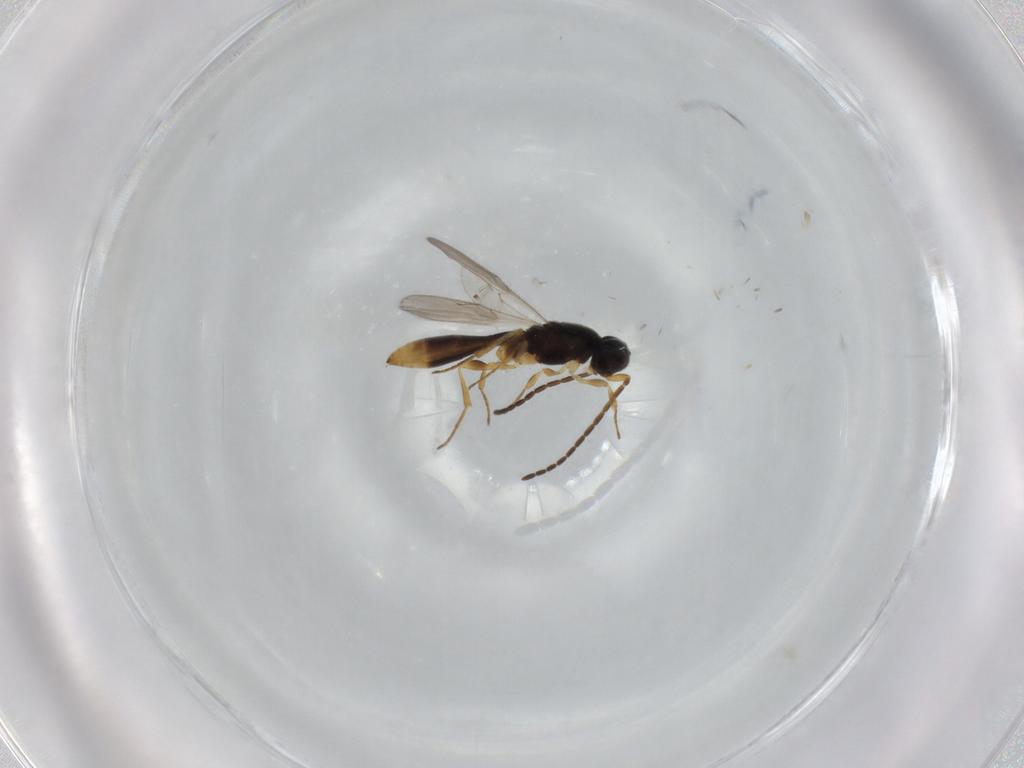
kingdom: Animalia
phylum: Arthropoda
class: Insecta
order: Hymenoptera
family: Scelionidae
